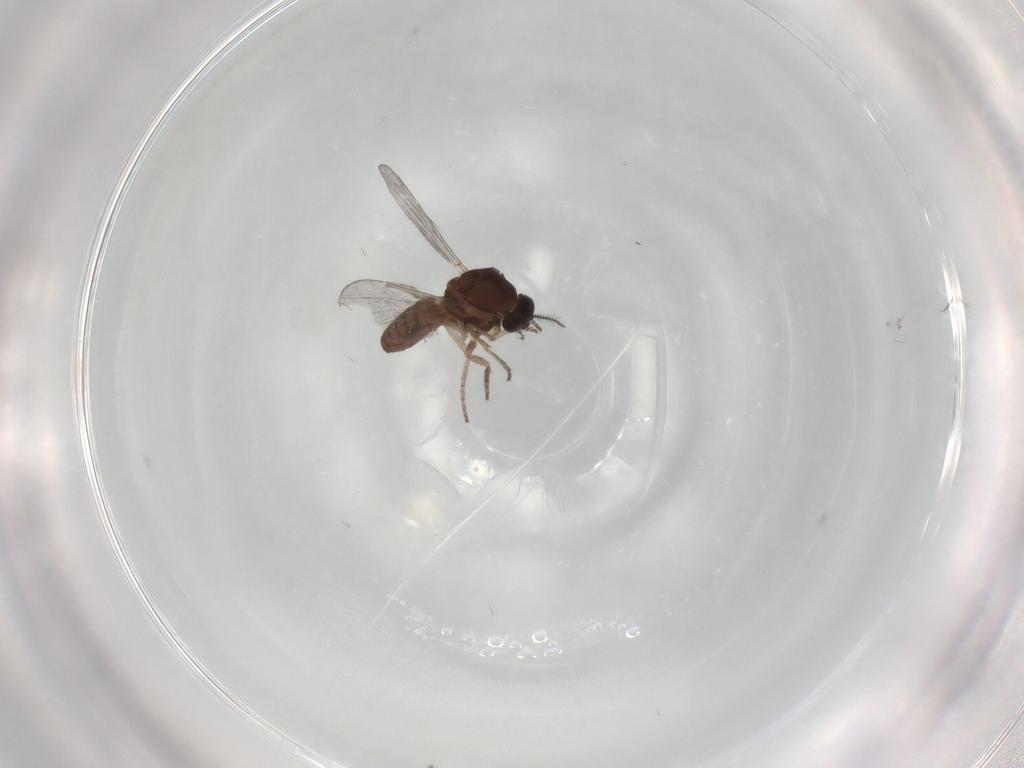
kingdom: Animalia
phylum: Arthropoda
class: Insecta
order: Diptera
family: Ceratopogonidae
